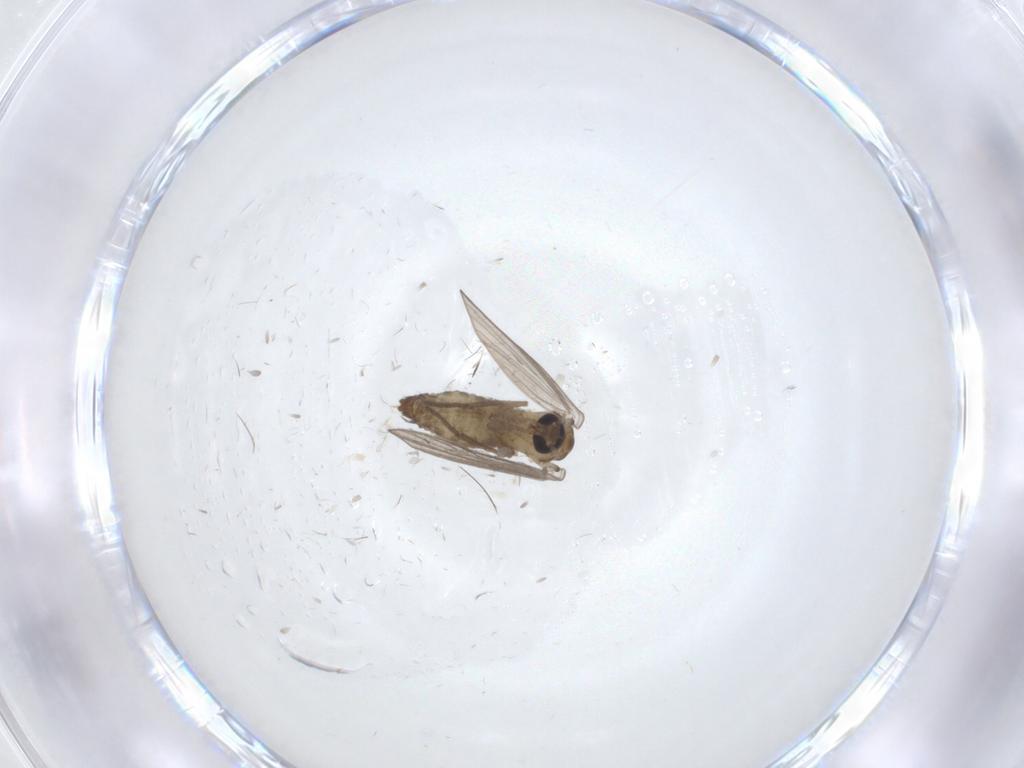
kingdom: Animalia
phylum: Arthropoda
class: Insecta
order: Diptera
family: Psychodidae
